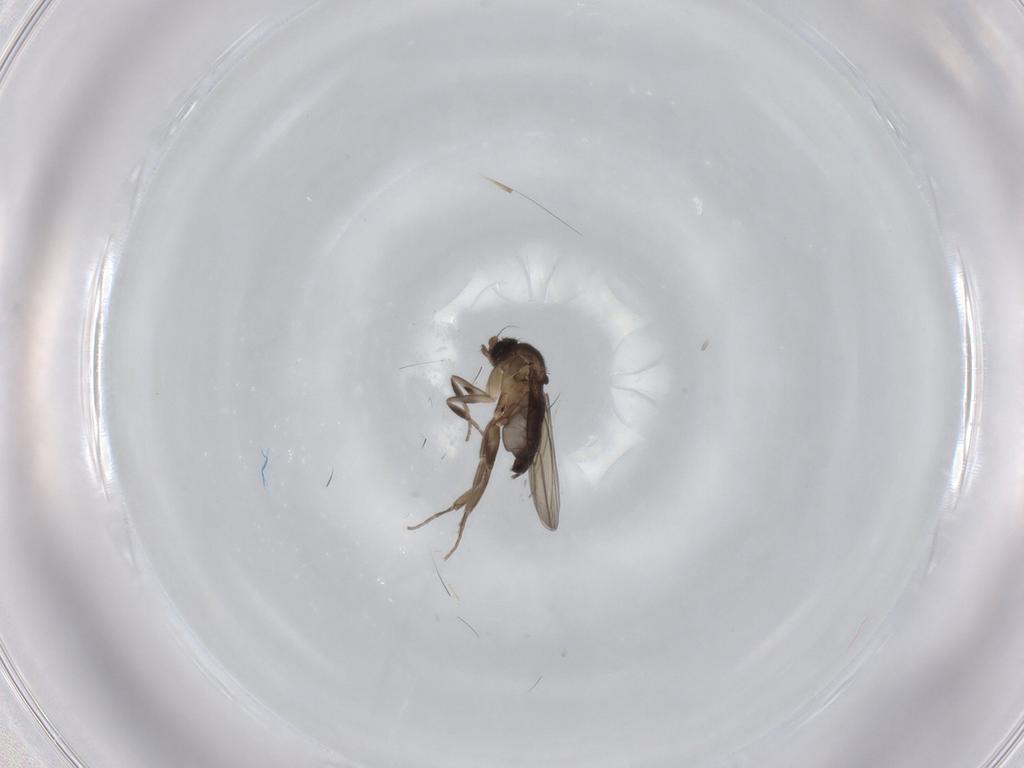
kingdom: Animalia
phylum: Arthropoda
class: Insecta
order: Diptera
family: Phoridae
